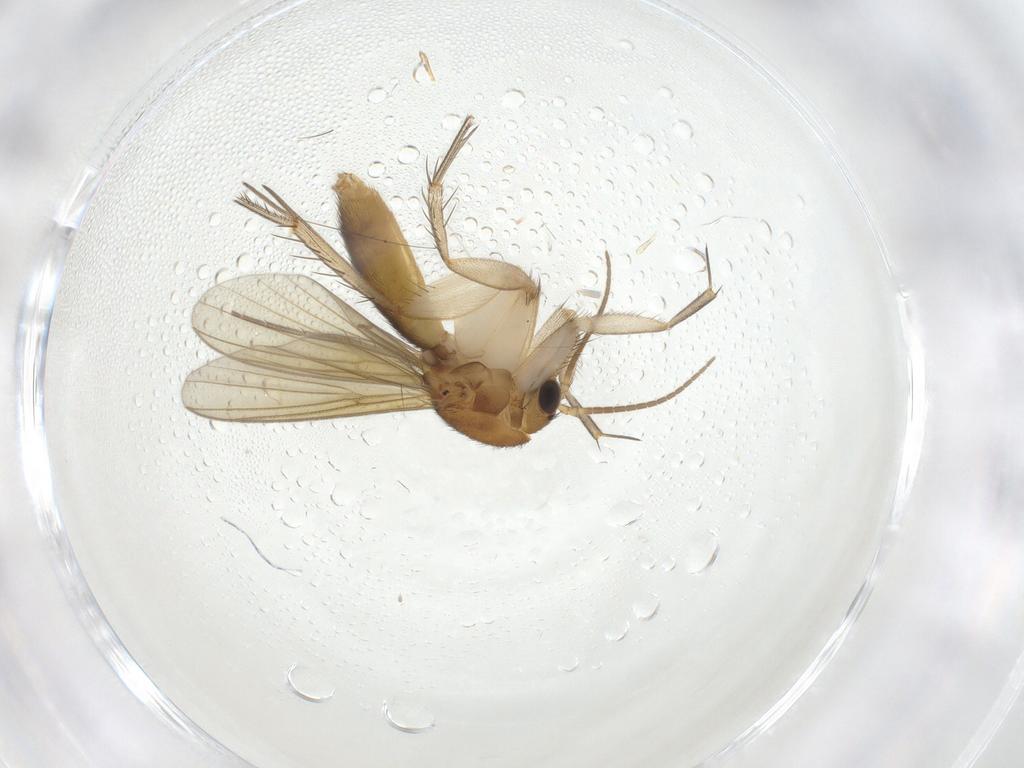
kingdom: Animalia
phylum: Arthropoda
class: Insecta
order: Diptera
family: Mycetophilidae
